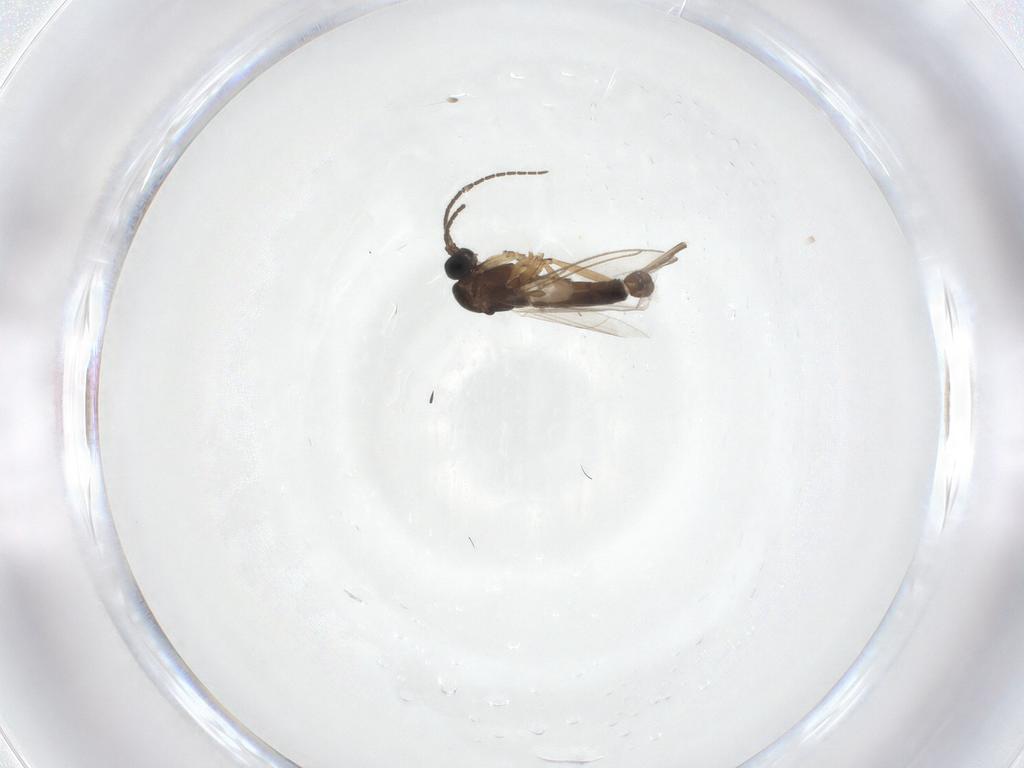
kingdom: Animalia
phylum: Arthropoda
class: Insecta
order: Diptera
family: Sciaridae
